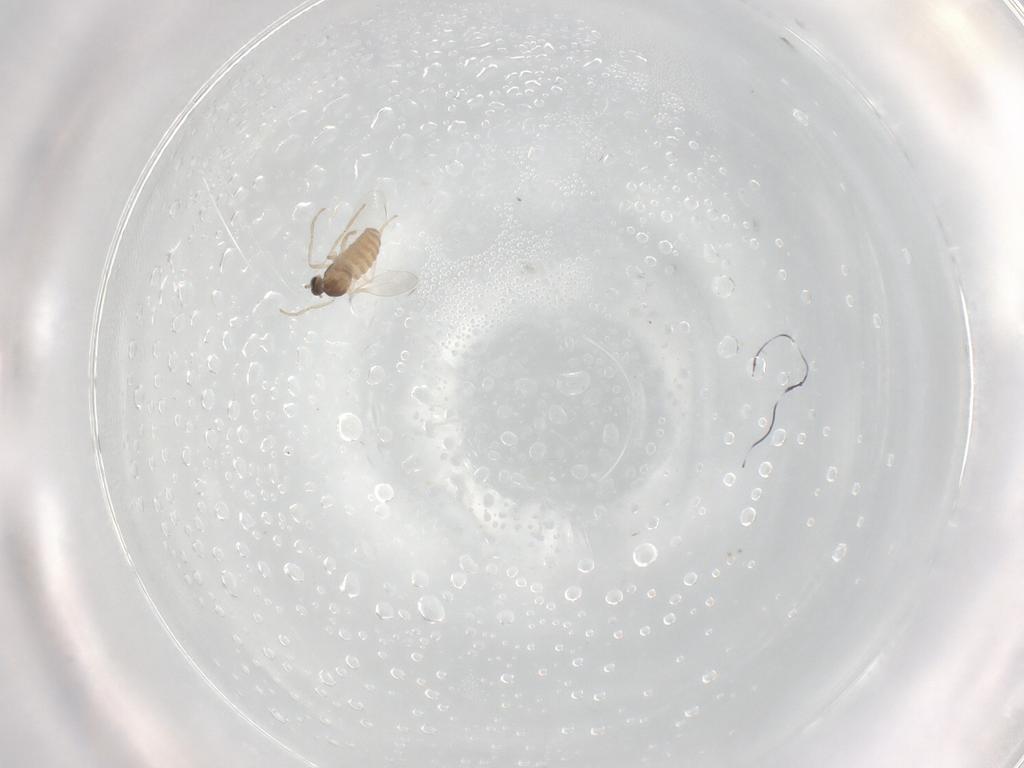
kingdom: Animalia
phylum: Arthropoda
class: Insecta
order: Diptera
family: Cecidomyiidae
